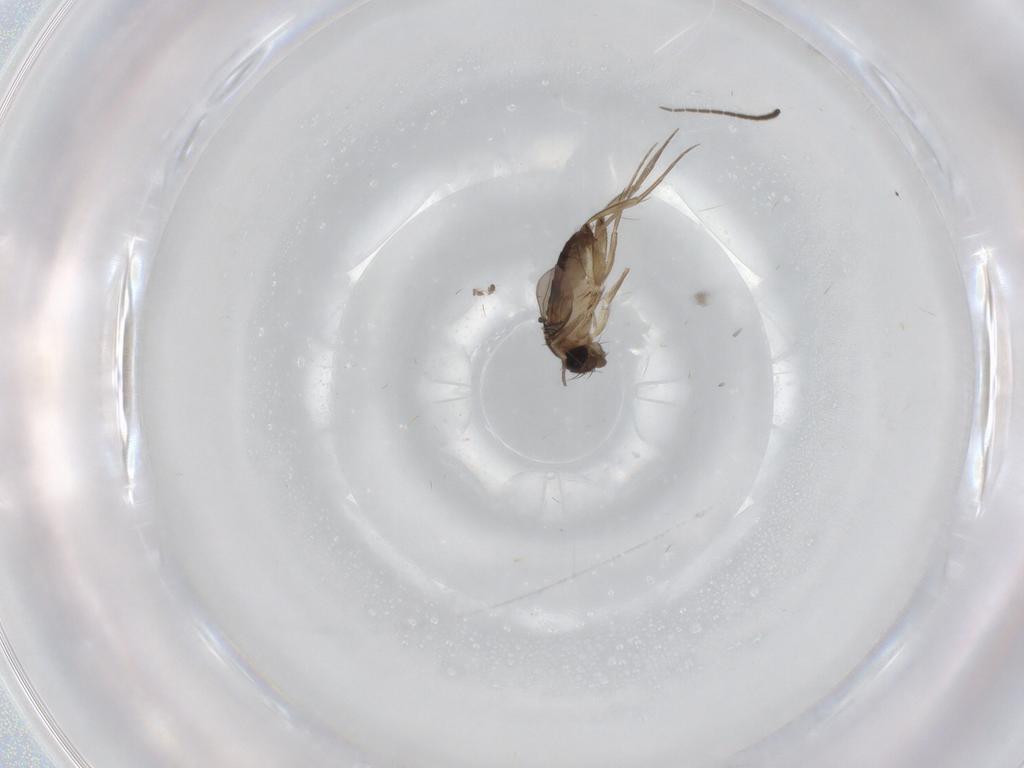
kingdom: Animalia
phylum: Arthropoda
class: Insecta
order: Diptera
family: Phoridae
